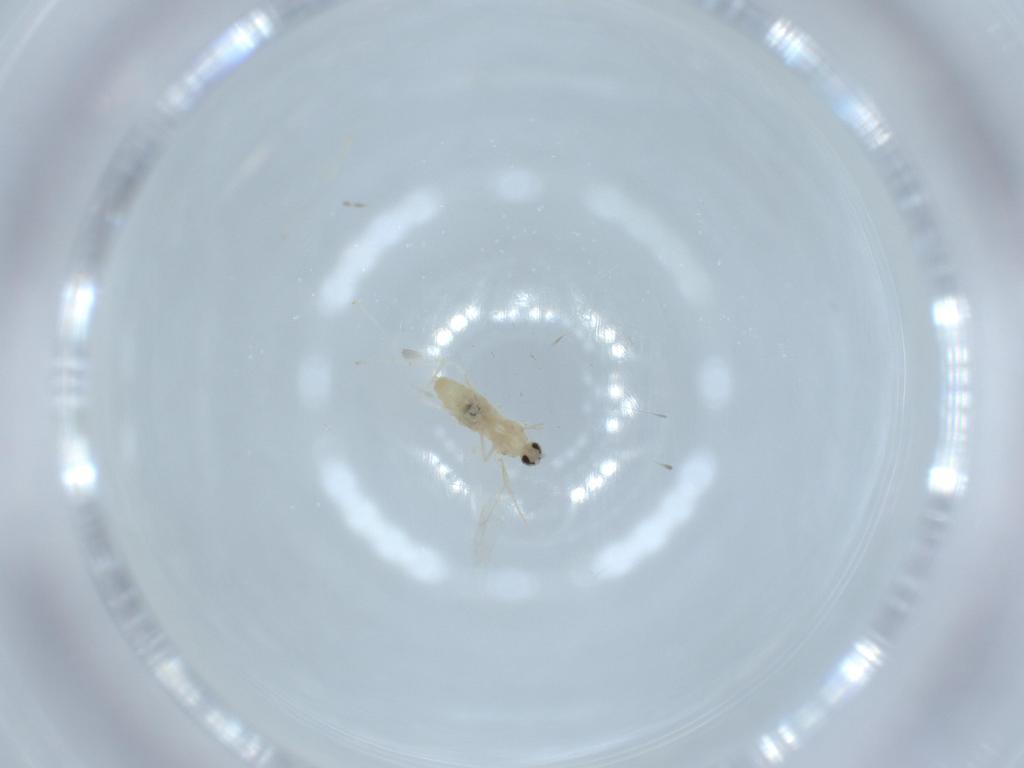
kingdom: Animalia
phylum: Arthropoda
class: Insecta
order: Diptera
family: Cecidomyiidae
